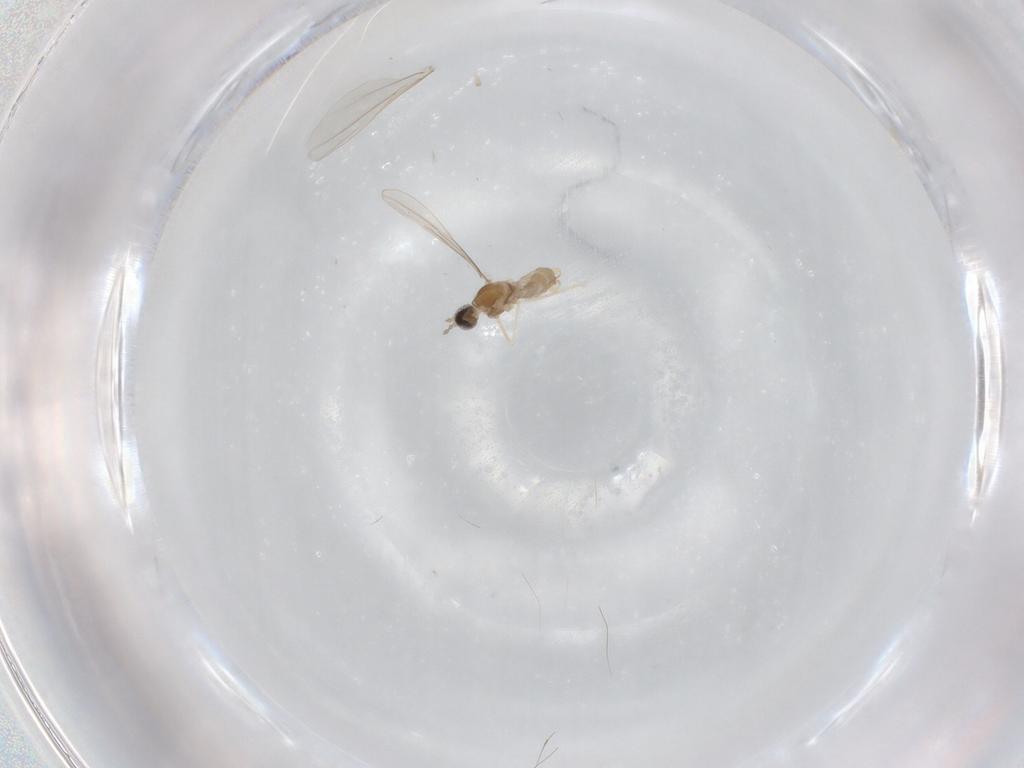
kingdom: Animalia
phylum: Arthropoda
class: Insecta
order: Diptera
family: Cecidomyiidae
